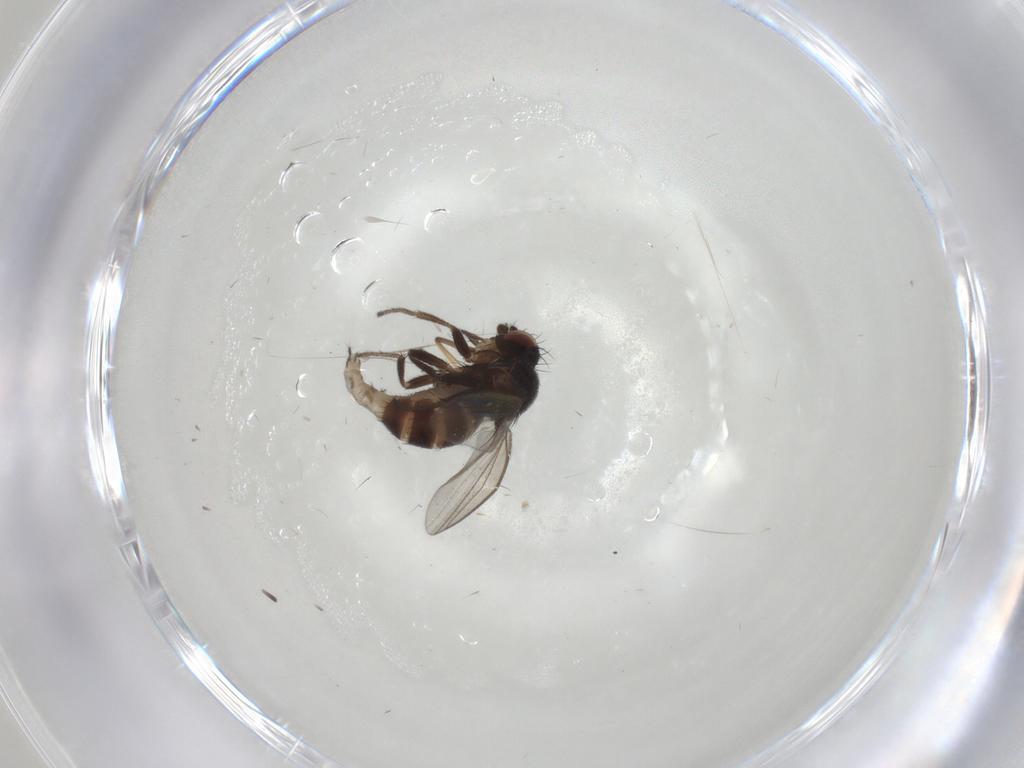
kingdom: Animalia
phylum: Arthropoda
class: Insecta
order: Diptera
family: Milichiidae
